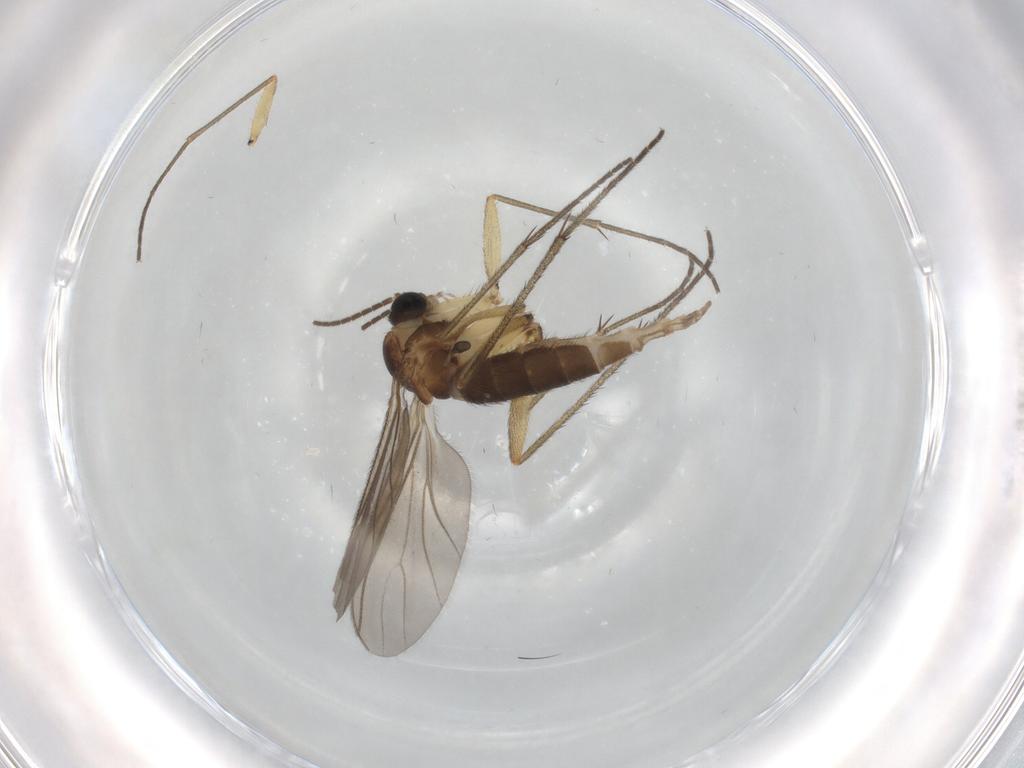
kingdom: Animalia
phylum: Arthropoda
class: Insecta
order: Diptera
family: Sciaridae
